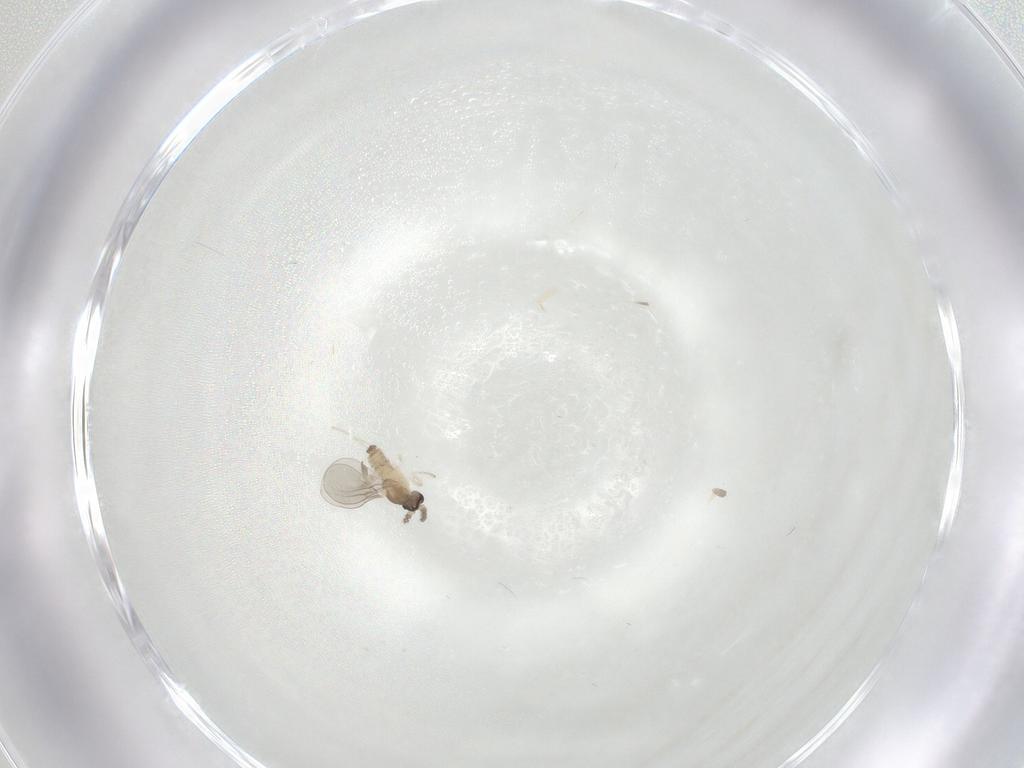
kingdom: Animalia
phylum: Arthropoda
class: Insecta
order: Diptera
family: Cecidomyiidae
